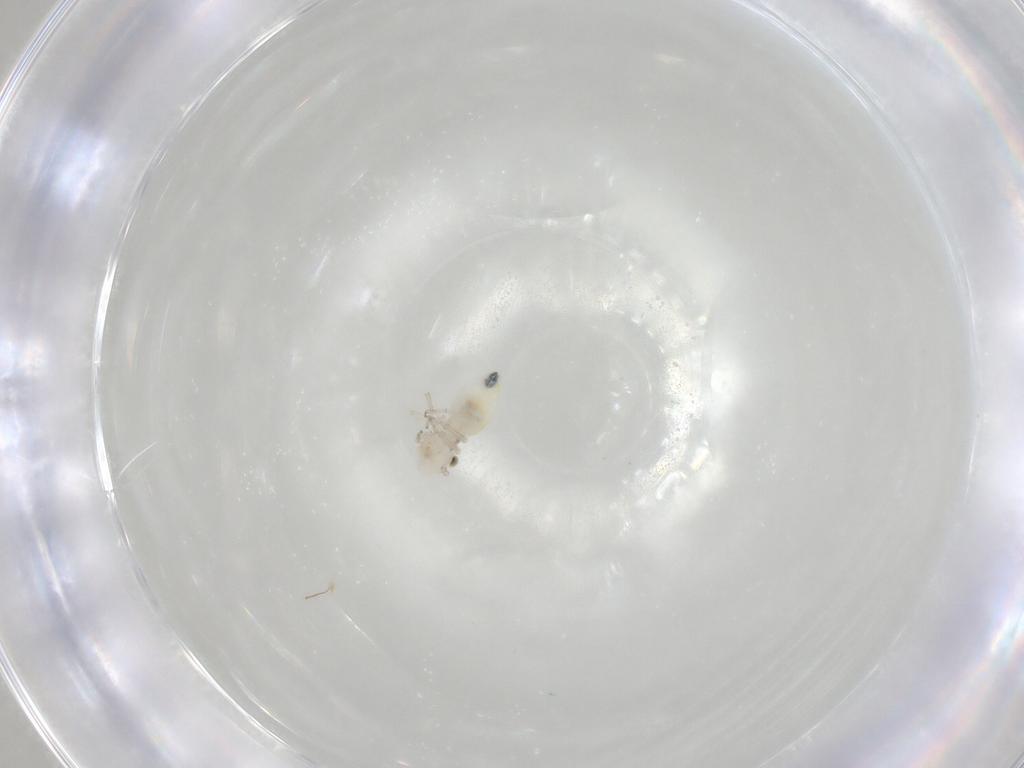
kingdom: Animalia
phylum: Arthropoda
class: Insecta
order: Psocodea
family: Caeciliusidae
